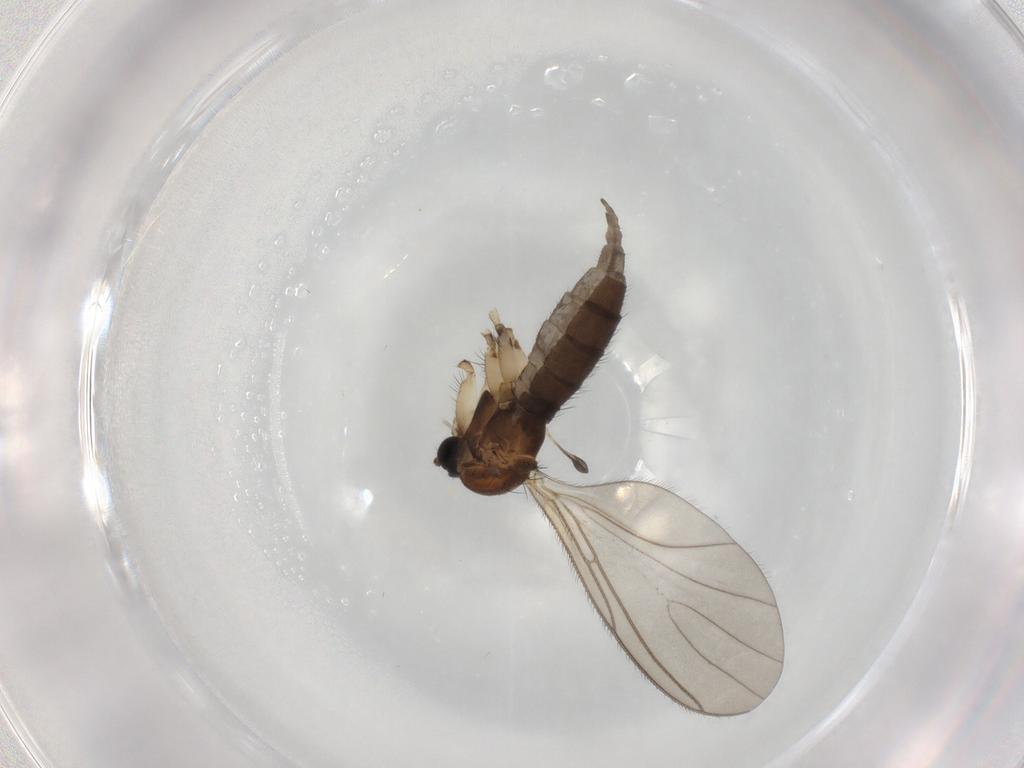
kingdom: Animalia
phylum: Arthropoda
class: Insecta
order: Diptera
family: Sciaridae
